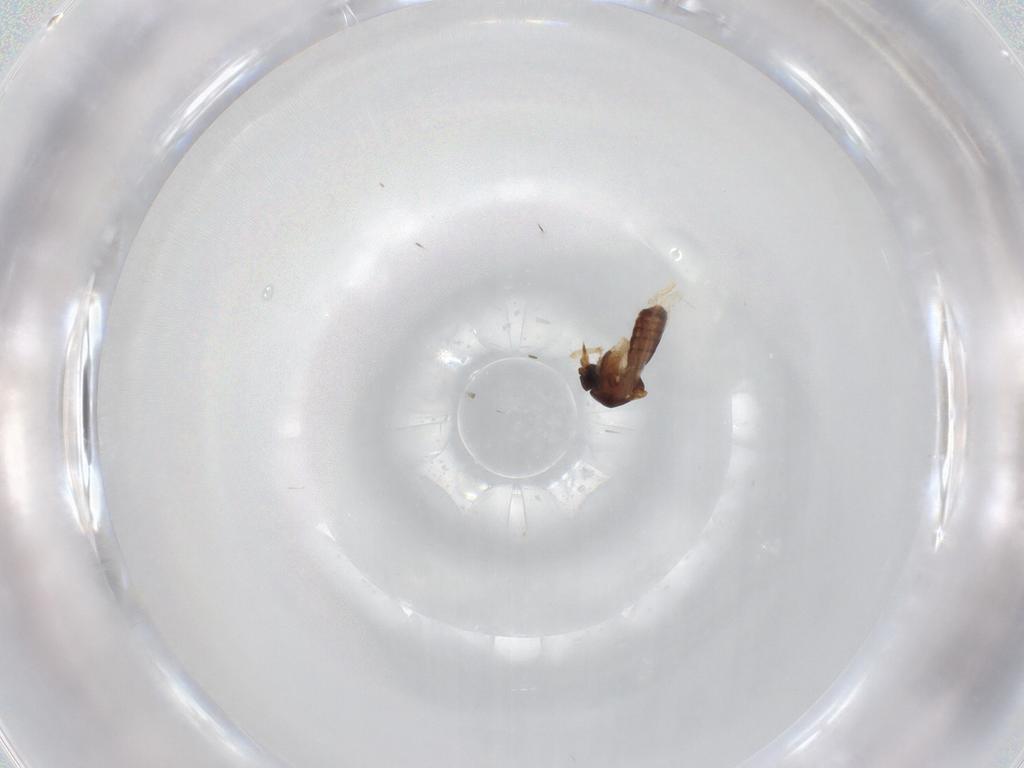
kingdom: Animalia
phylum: Arthropoda
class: Insecta
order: Diptera
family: Ceratopogonidae
